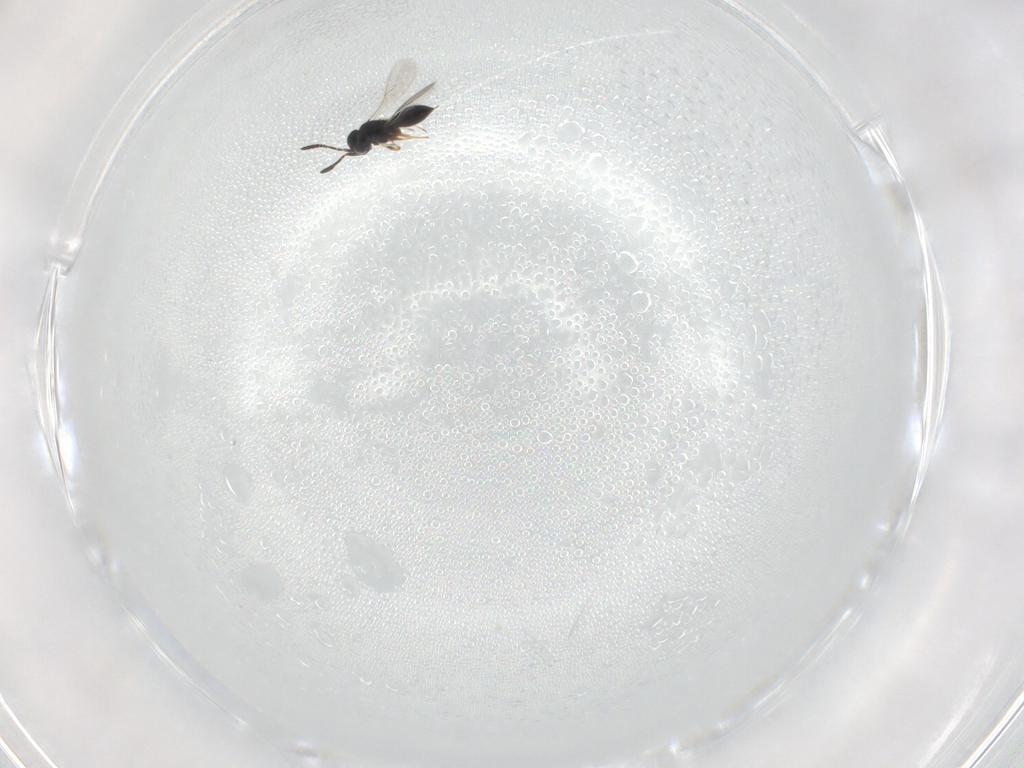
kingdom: Animalia
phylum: Arthropoda
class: Insecta
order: Hymenoptera
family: Scelionidae
